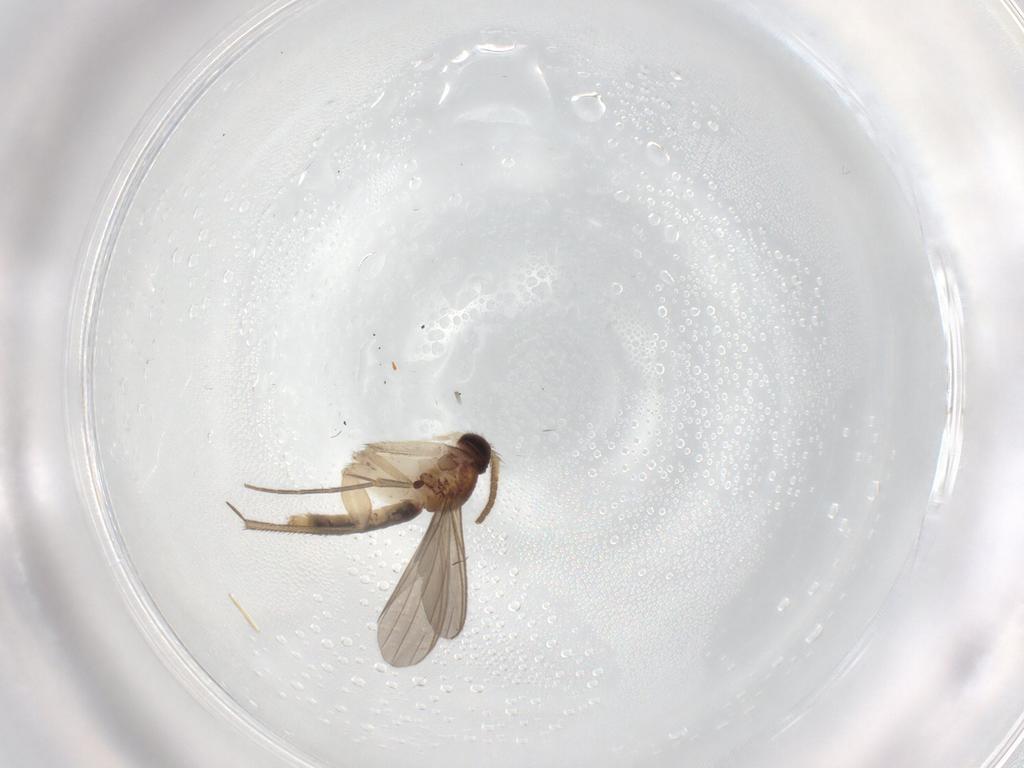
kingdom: Animalia
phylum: Arthropoda
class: Insecta
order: Diptera
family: Mycetophilidae
